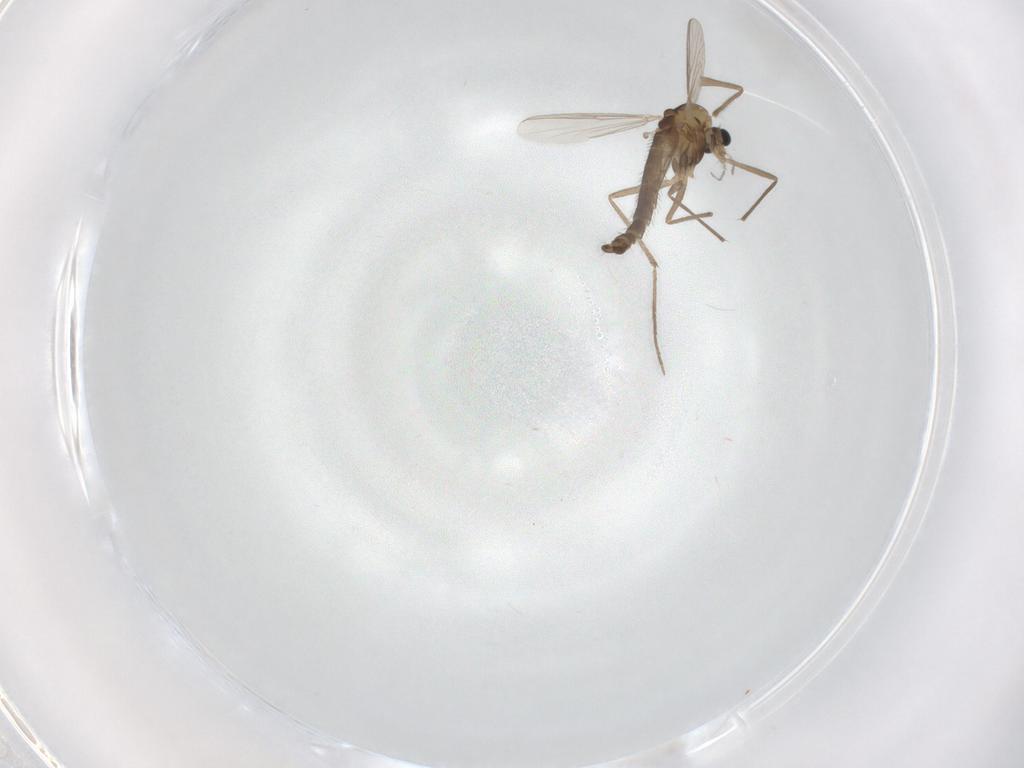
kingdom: Animalia
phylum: Arthropoda
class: Insecta
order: Diptera
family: Chironomidae
